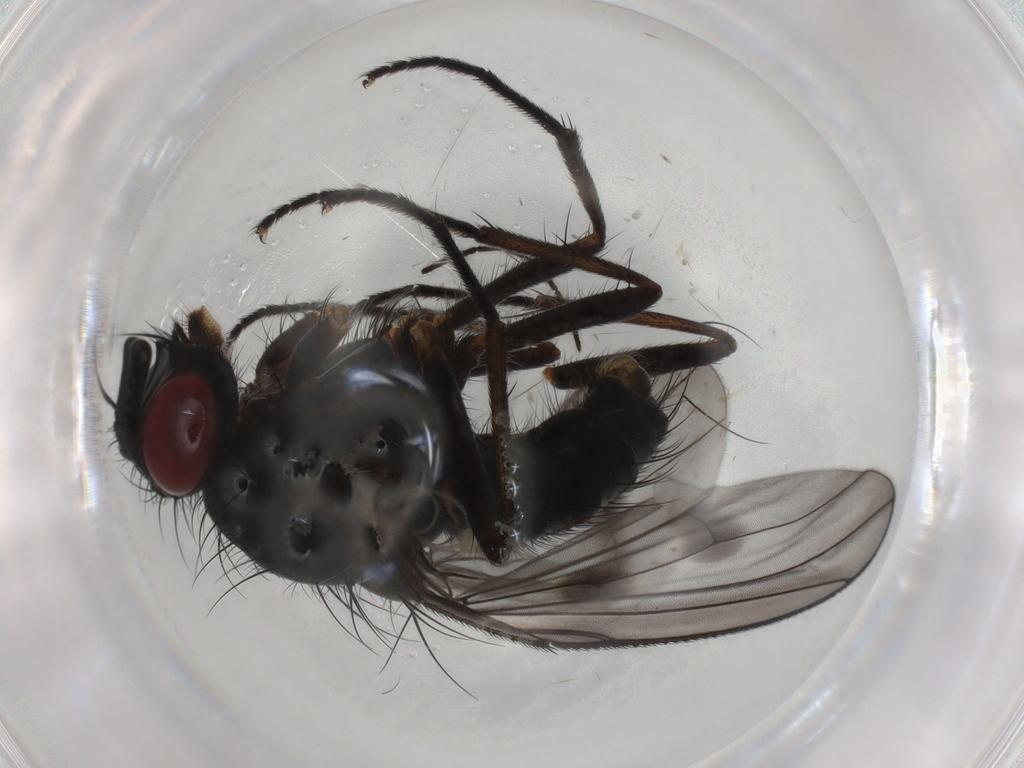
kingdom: Animalia
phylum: Arthropoda
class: Insecta
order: Diptera
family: Muscidae
